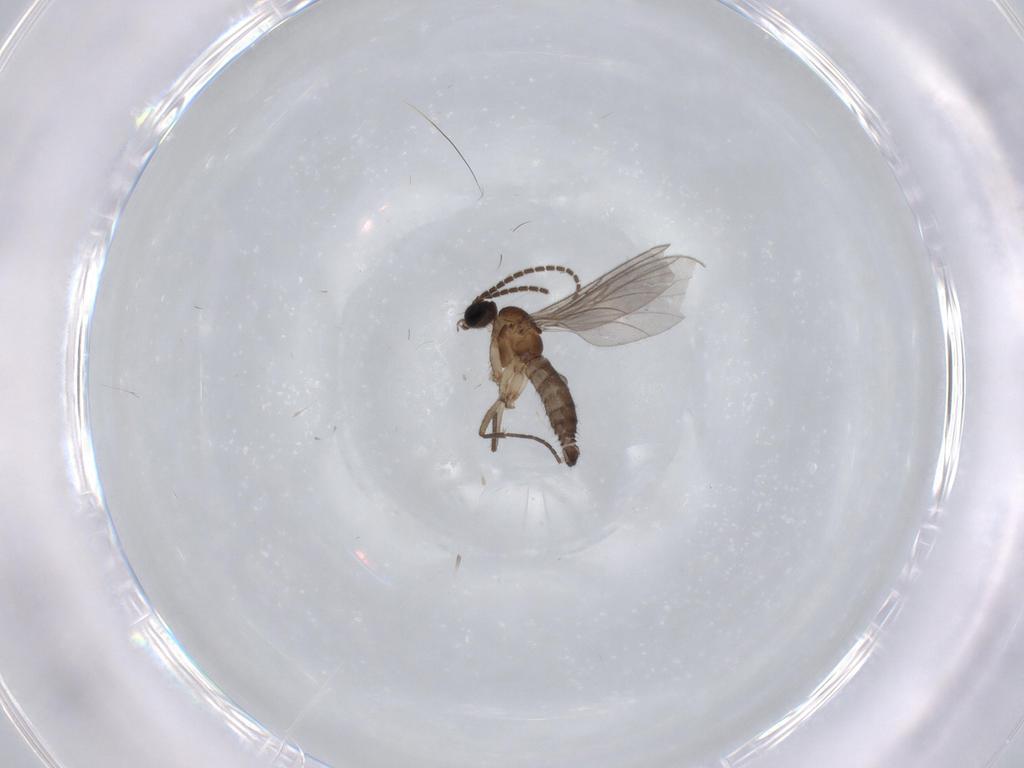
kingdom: Animalia
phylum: Arthropoda
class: Insecta
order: Diptera
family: Sciaridae
